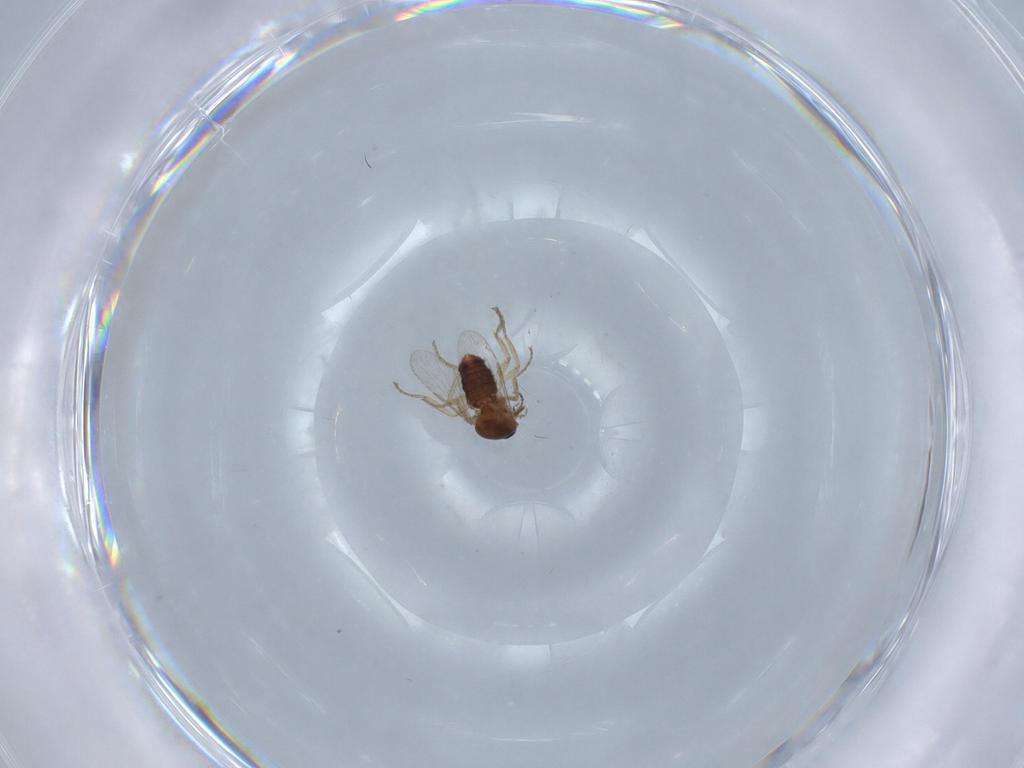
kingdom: Animalia
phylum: Arthropoda
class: Insecta
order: Diptera
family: Ceratopogonidae
